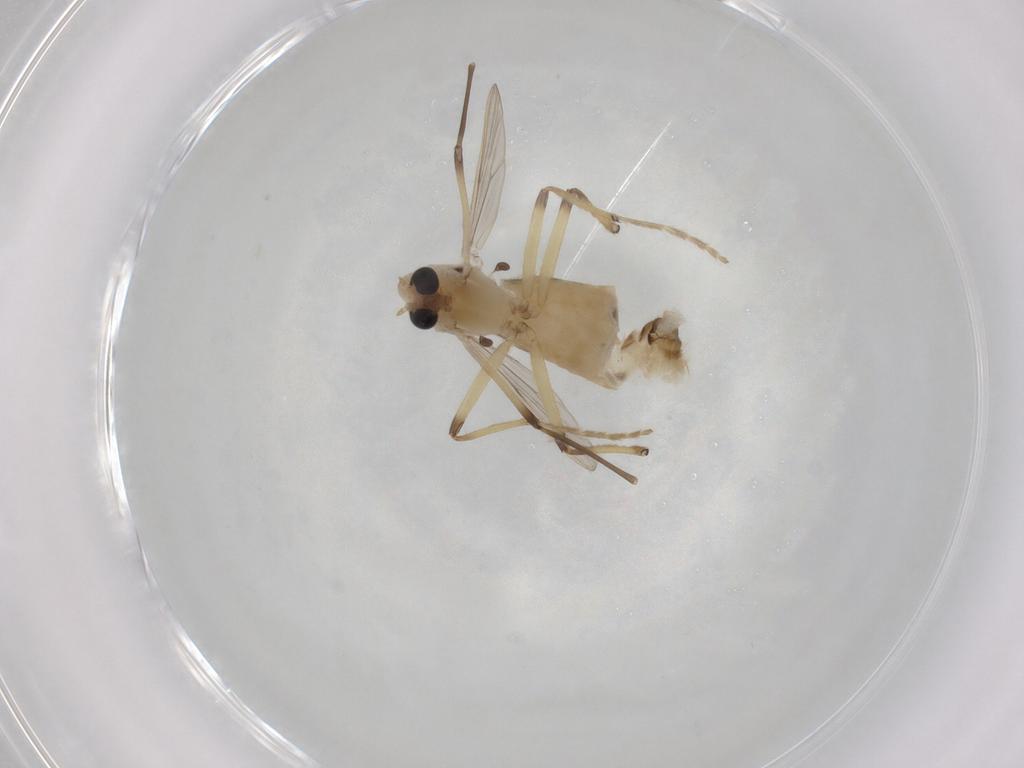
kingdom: Animalia
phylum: Arthropoda
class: Insecta
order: Diptera
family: Chironomidae
